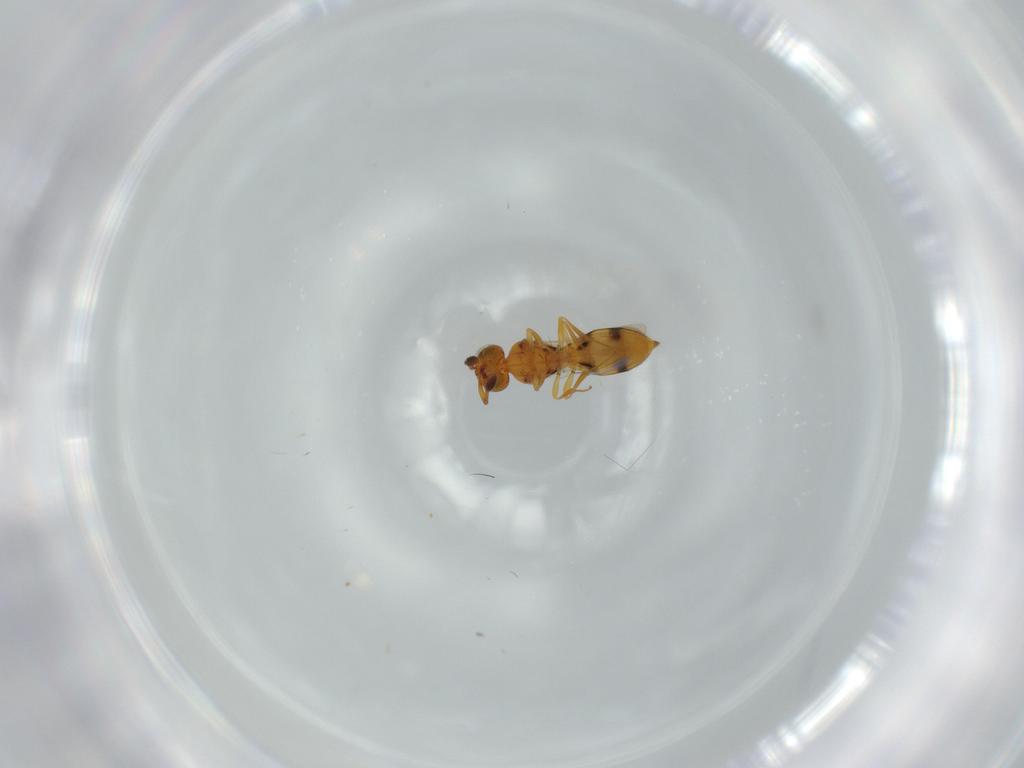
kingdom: Animalia
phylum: Arthropoda
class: Insecta
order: Hymenoptera
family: Scelionidae
